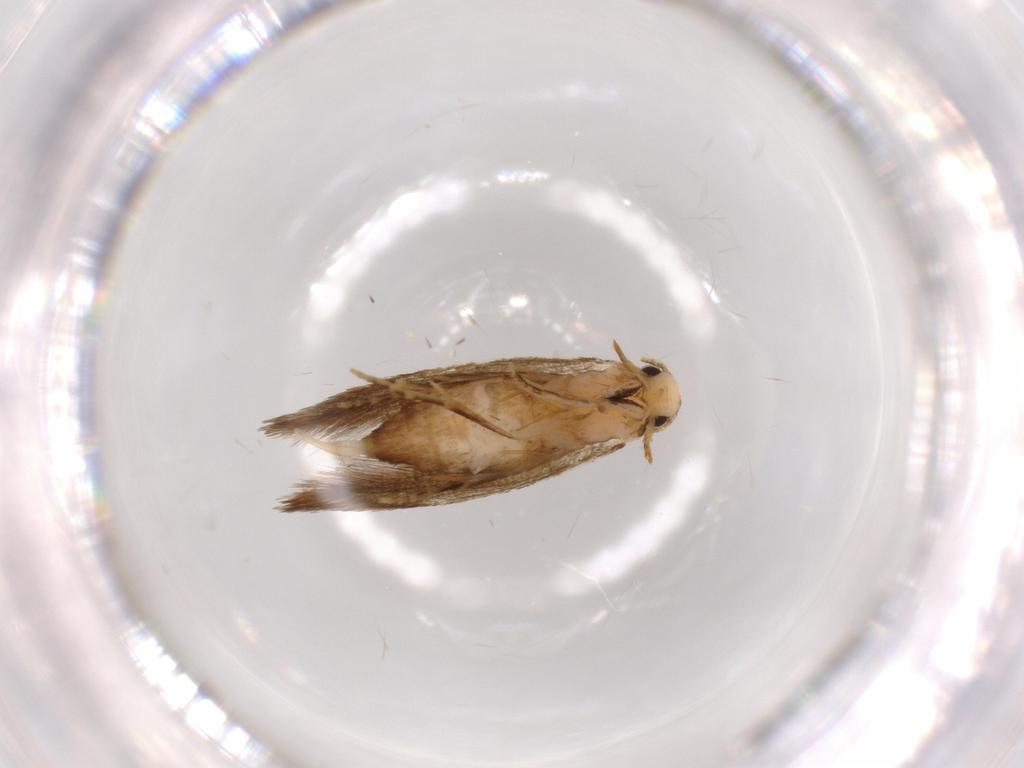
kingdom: Animalia
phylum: Arthropoda
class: Insecta
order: Lepidoptera
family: Tineidae
